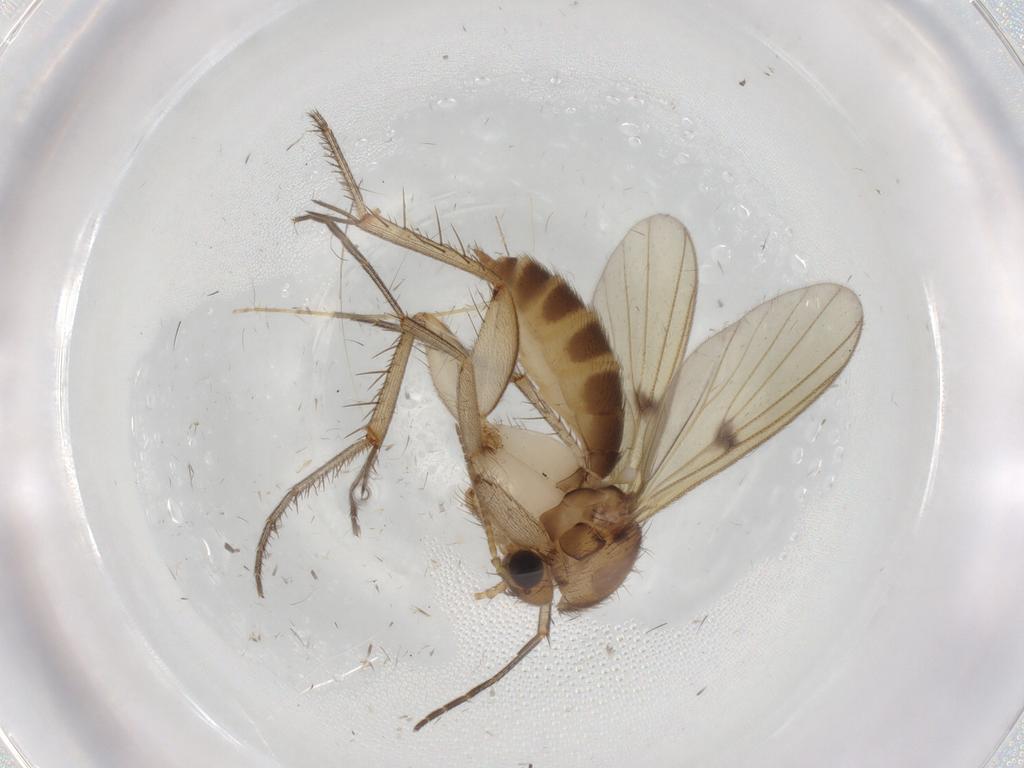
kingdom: Animalia
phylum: Arthropoda
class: Insecta
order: Diptera
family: Chironomidae
